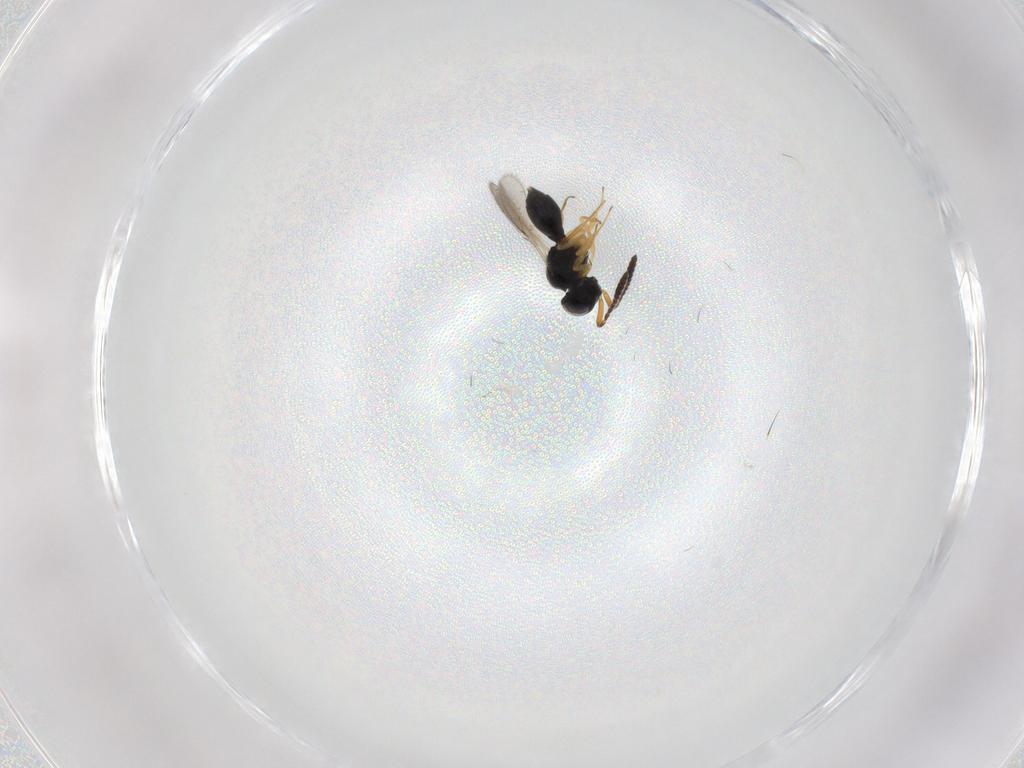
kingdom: Animalia
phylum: Arthropoda
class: Insecta
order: Hymenoptera
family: Scelionidae
